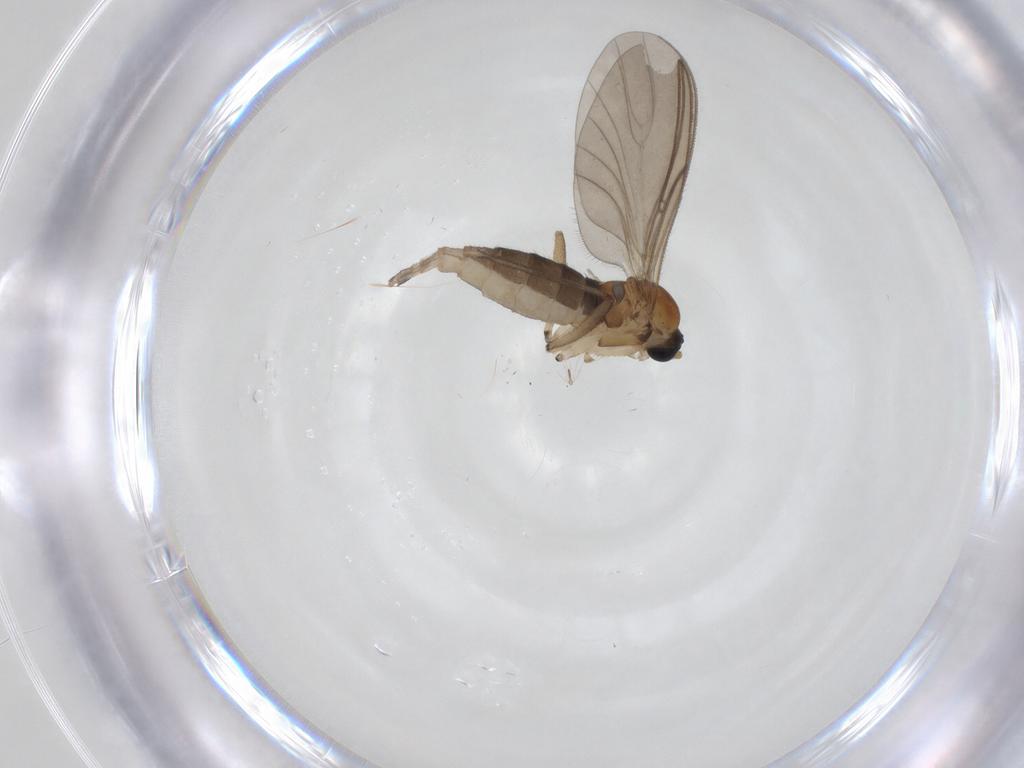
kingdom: Animalia
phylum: Arthropoda
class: Insecta
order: Diptera
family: Sciaridae
